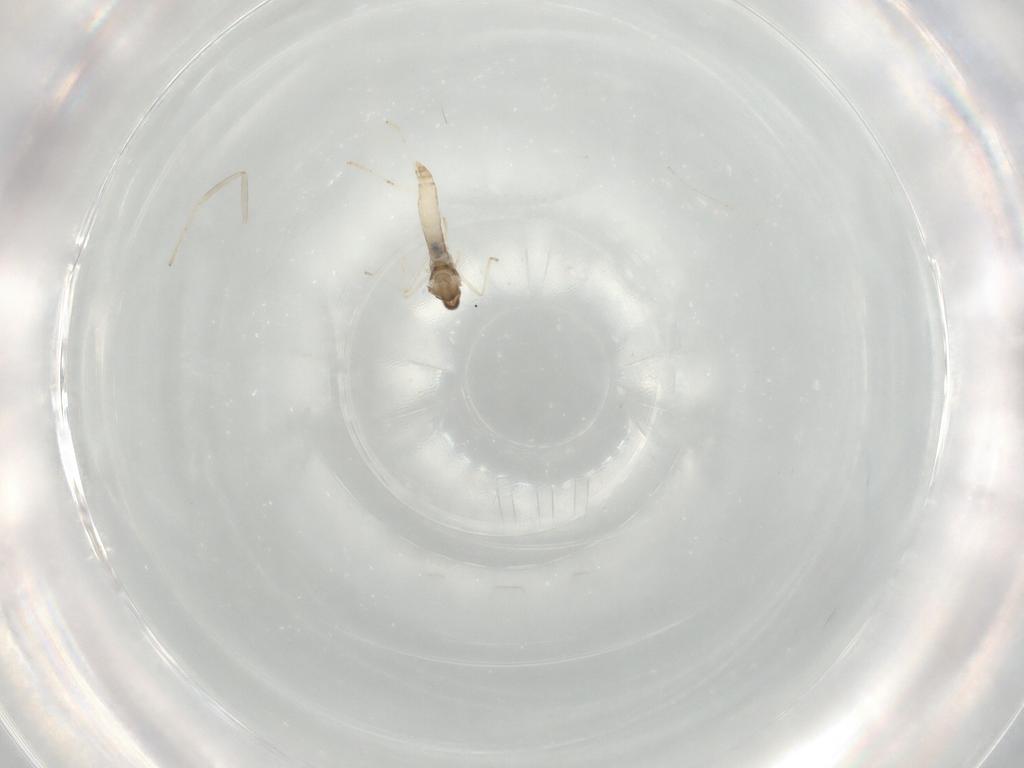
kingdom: Animalia
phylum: Arthropoda
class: Insecta
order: Diptera
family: Cecidomyiidae
